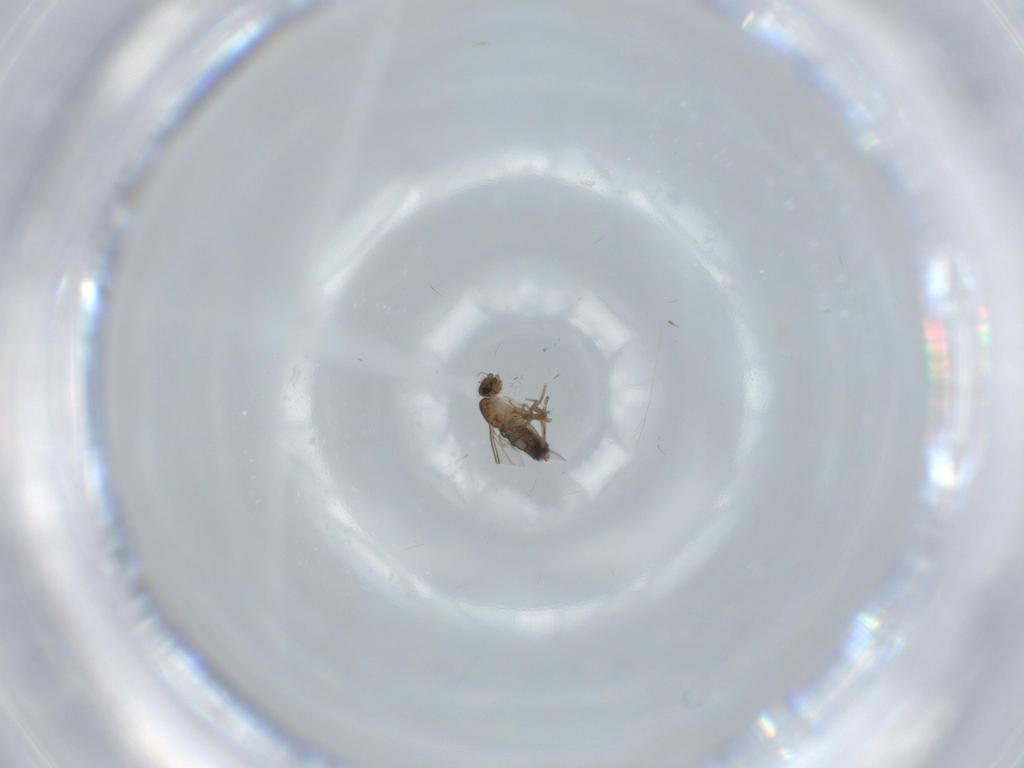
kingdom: Animalia
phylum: Arthropoda
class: Insecta
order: Diptera
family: Phoridae
